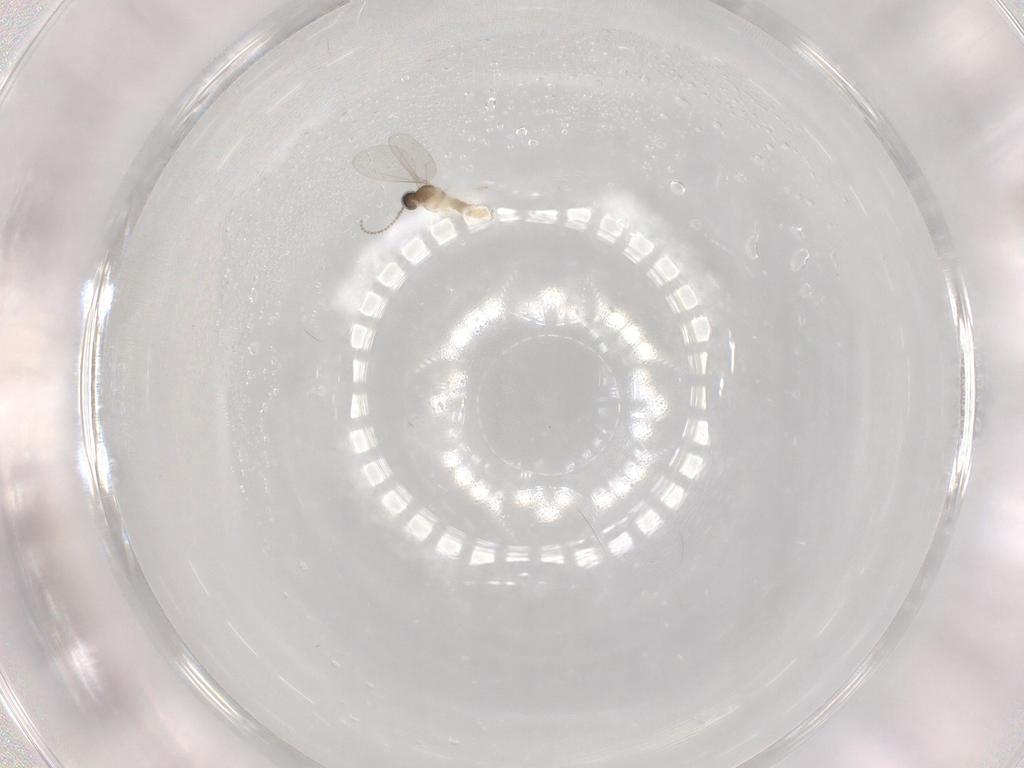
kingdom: Animalia
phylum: Arthropoda
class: Insecta
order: Diptera
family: Cecidomyiidae
